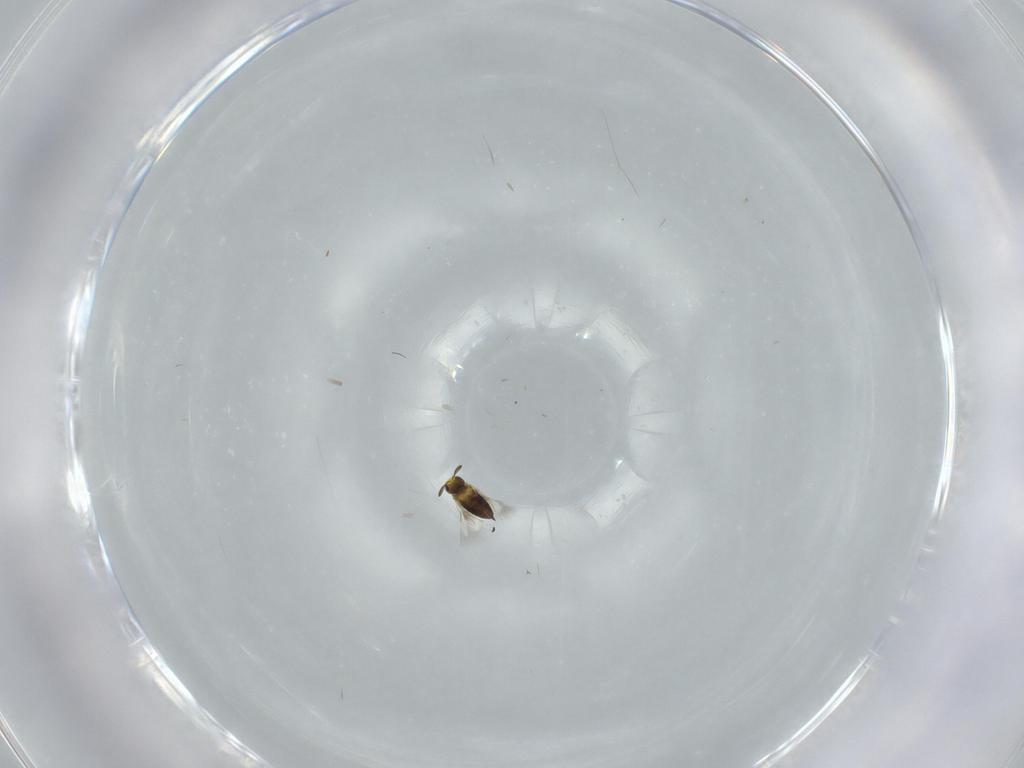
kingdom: Animalia
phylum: Arthropoda
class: Insecta
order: Hymenoptera
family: Signiphoridae
